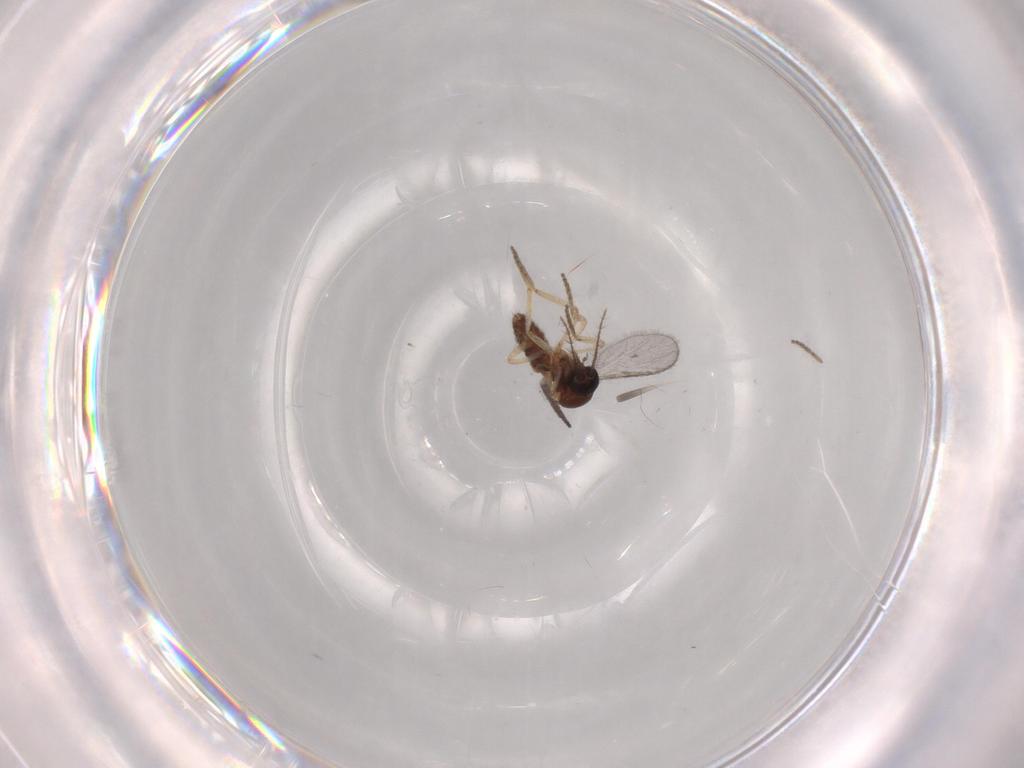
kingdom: Animalia
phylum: Arthropoda
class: Insecta
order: Diptera
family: Ceratopogonidae
